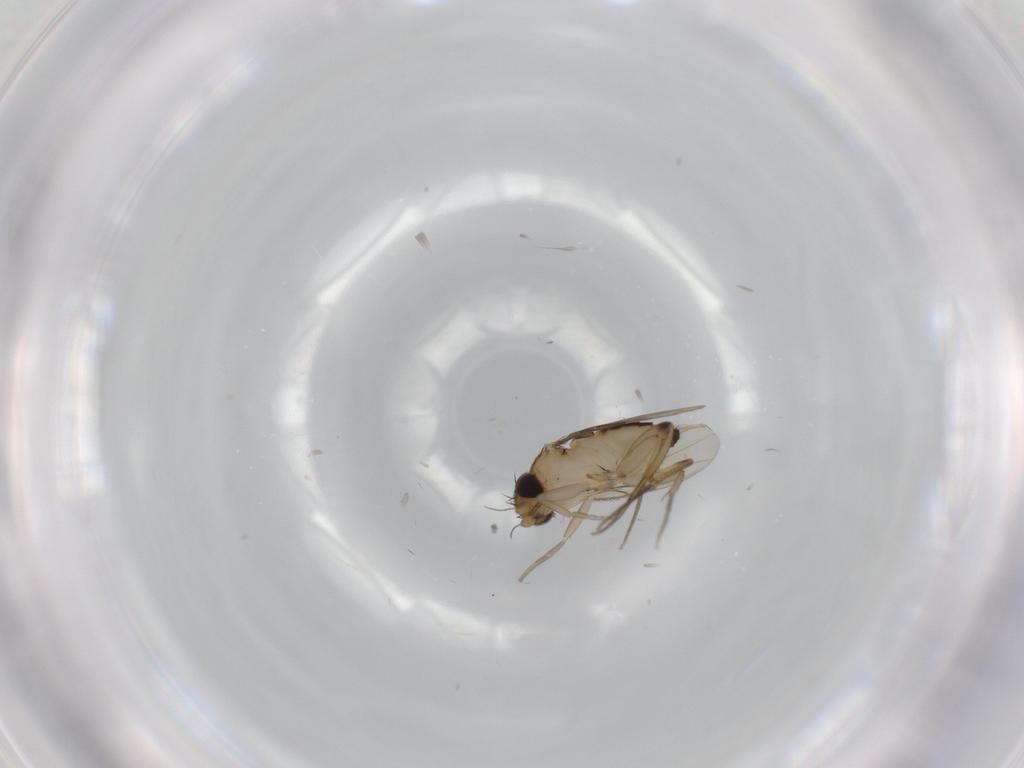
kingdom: Animalia
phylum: Arthropoda
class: Insecta
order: Diptera
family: Phoridae
